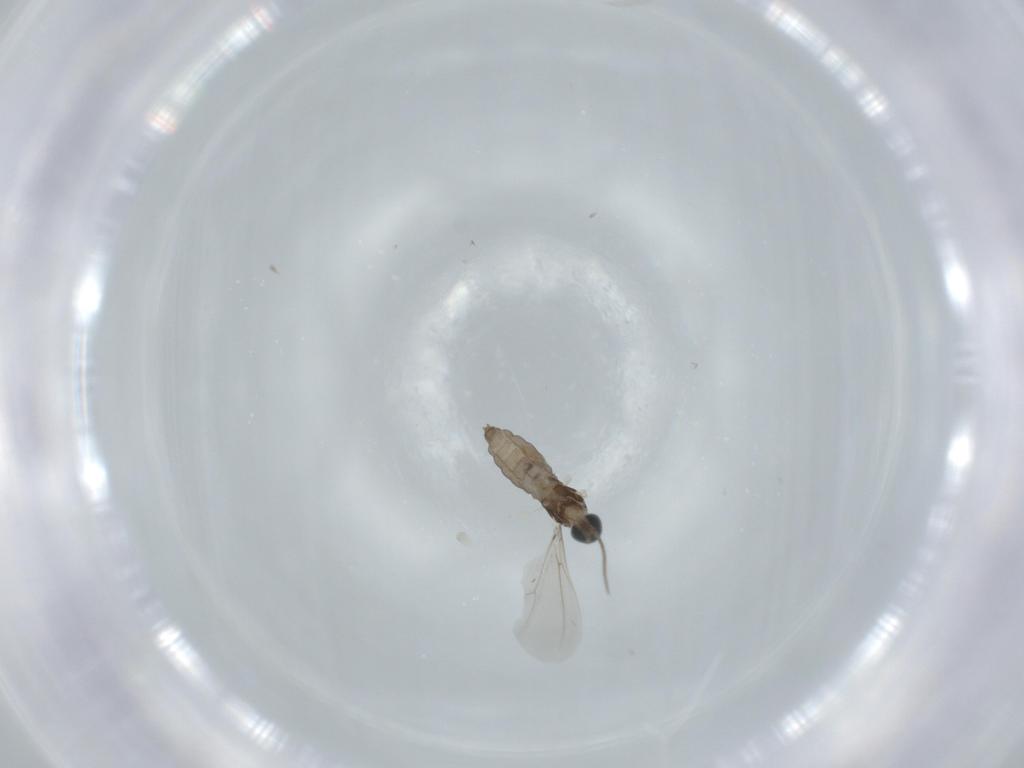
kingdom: Animalia
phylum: Arthropoda
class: Insecta
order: Diptera
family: Cecidomyiidae
